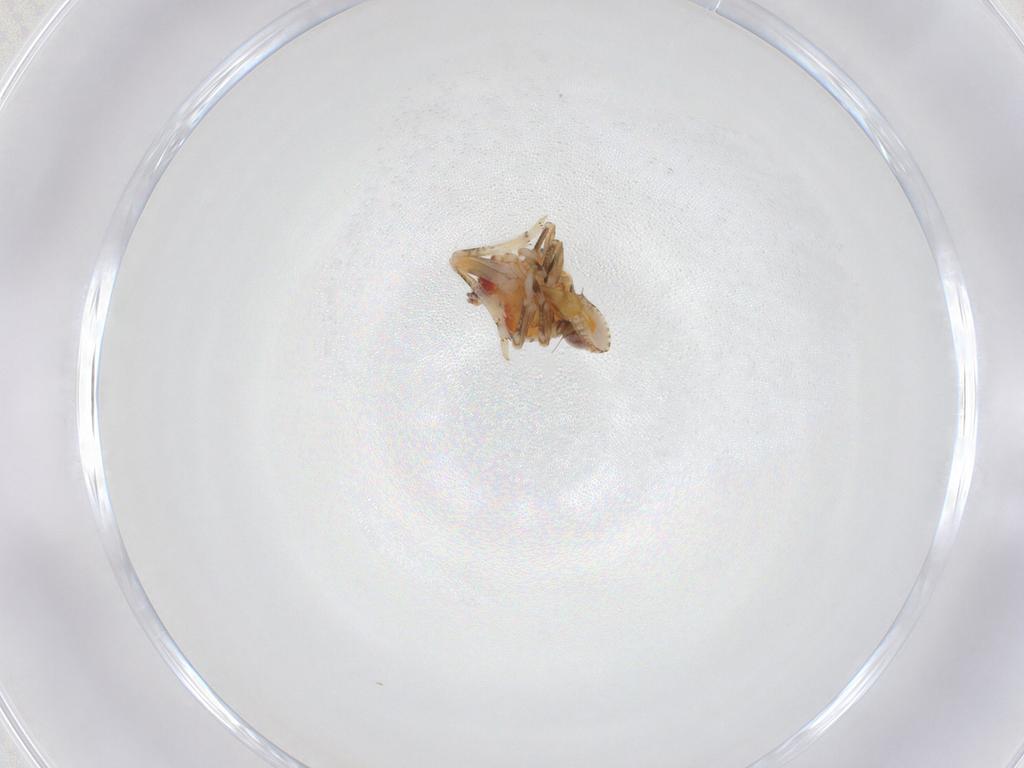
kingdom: Animalia
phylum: Arthropoda
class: Insecta
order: Hemiptera
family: Tropiduchidae
